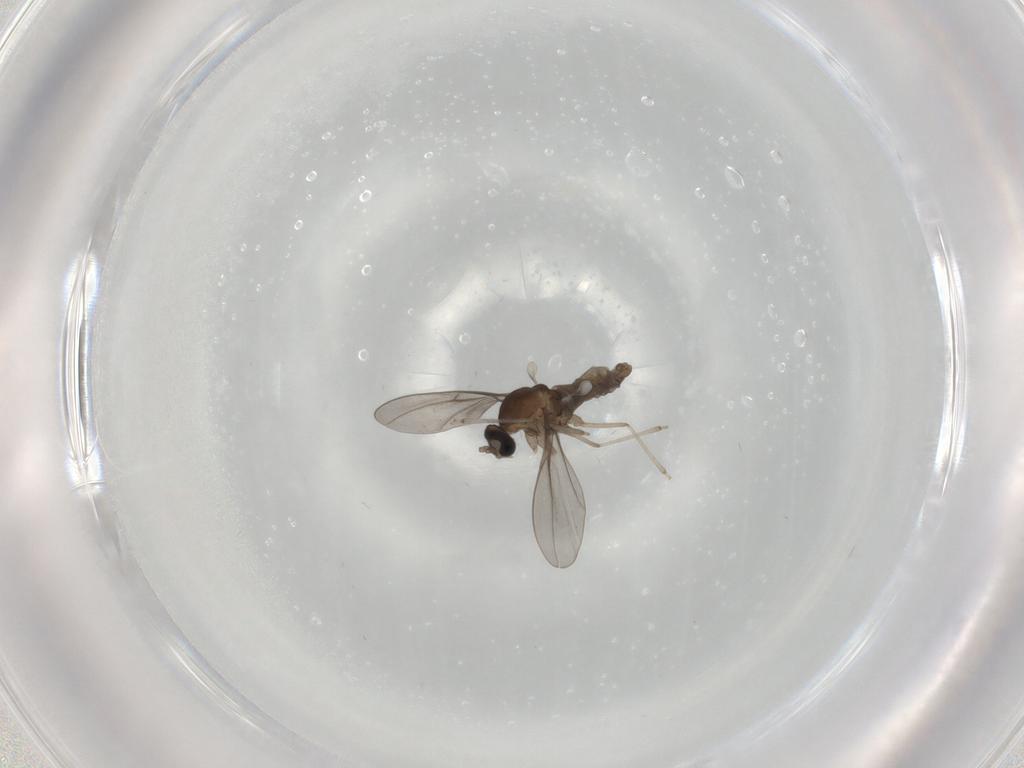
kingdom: Animalia
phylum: Arthropoda
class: Insecta
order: Diptera
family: Cecidomyiidae
